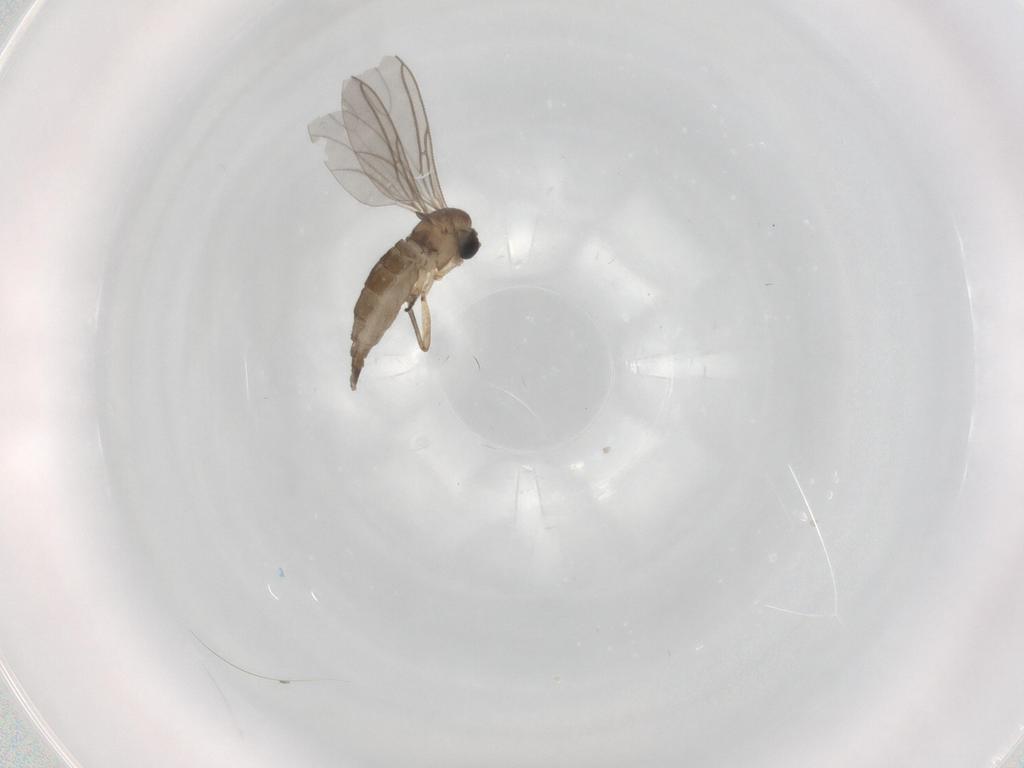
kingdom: Animalia
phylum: Arthropoda
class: Insecta
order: Diptera
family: Sciaridae
